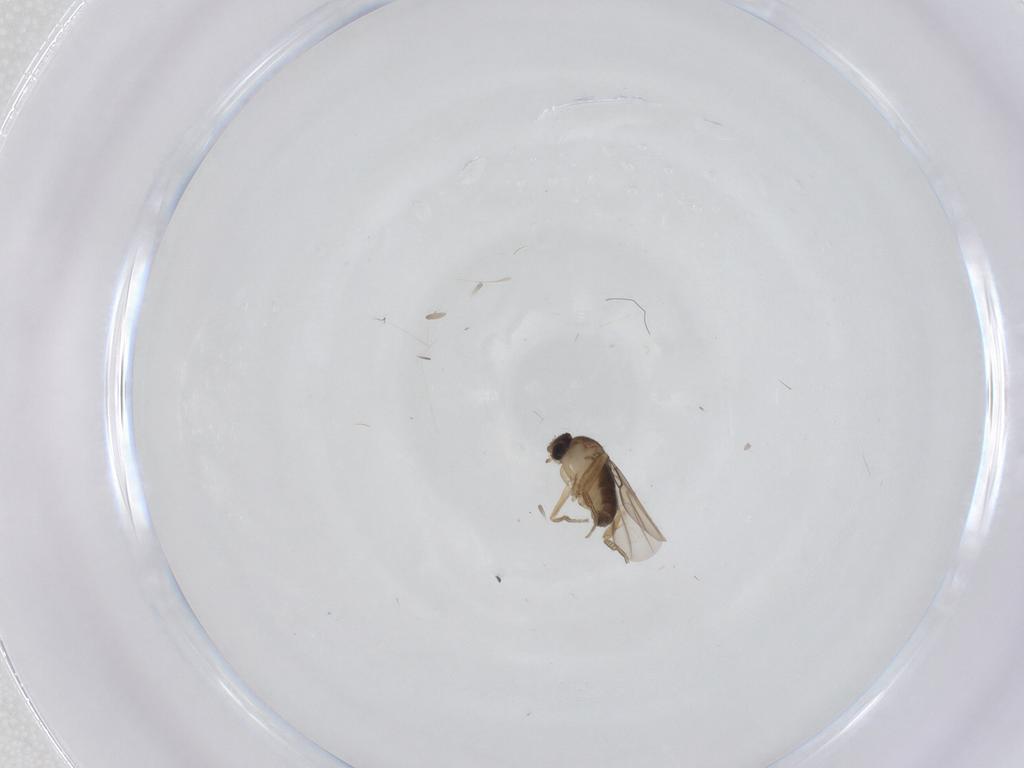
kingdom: Animalia
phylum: Arthropoda
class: Insecta
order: Diptera
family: Phoridae
